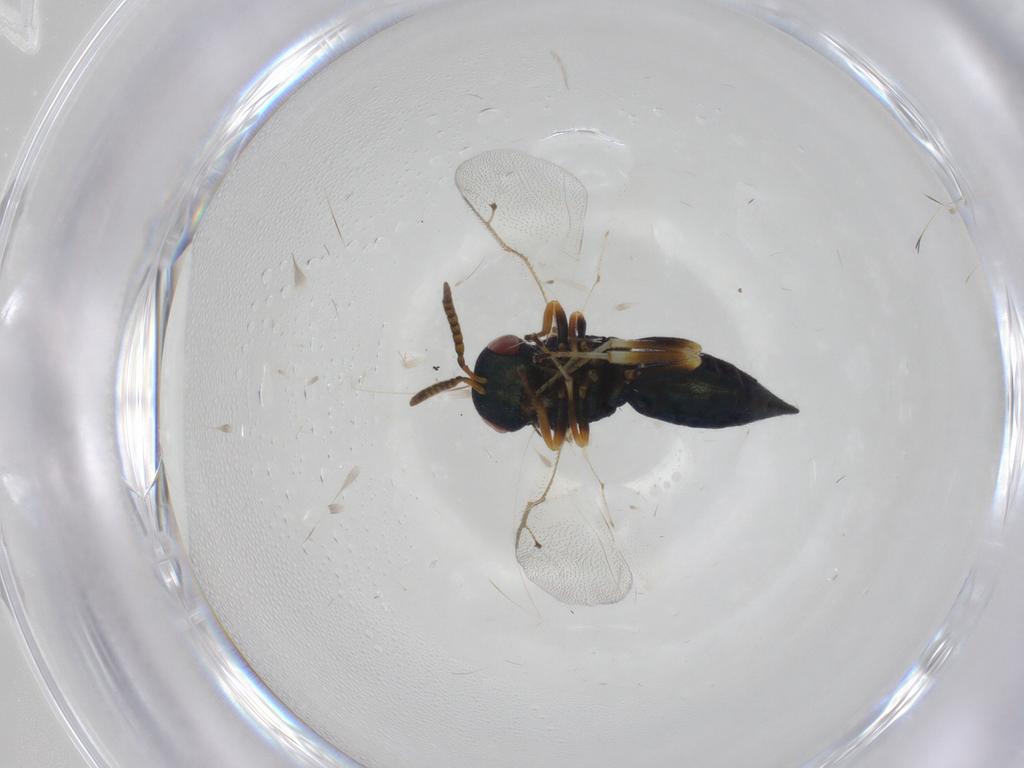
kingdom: Animalia
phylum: Arthropoda
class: Insecta
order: Hymenoptera
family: Pteromalidae
